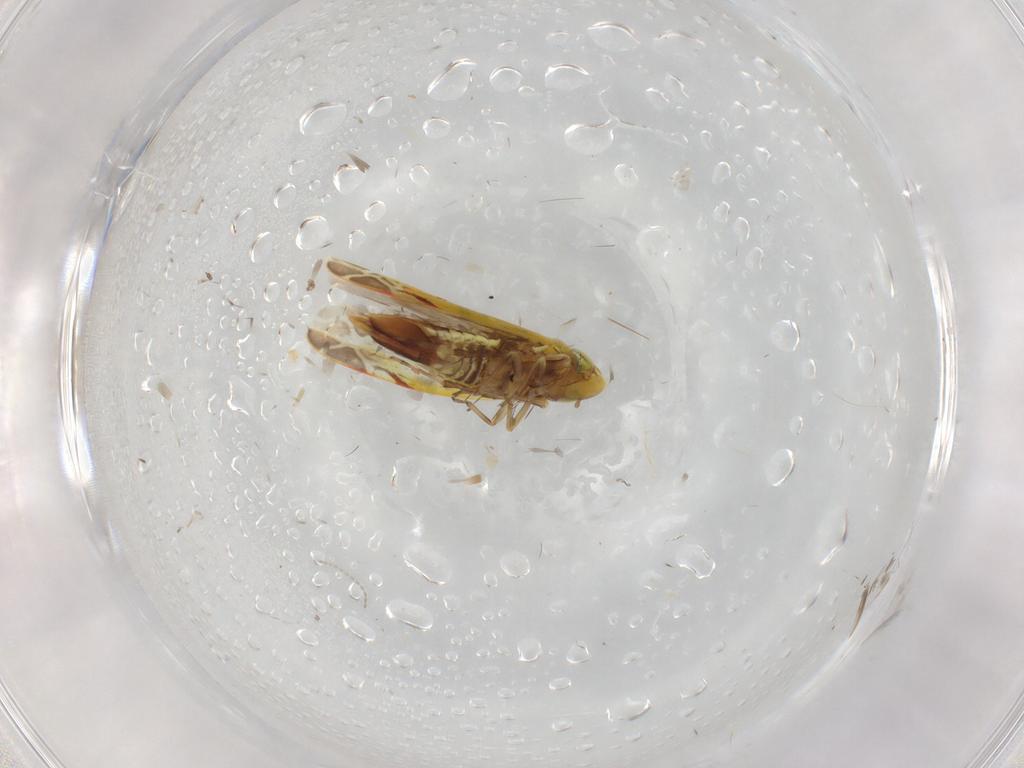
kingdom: Animalia
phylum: Arthropoda
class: Insecta
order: Hemiptera
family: Cicadellidae
